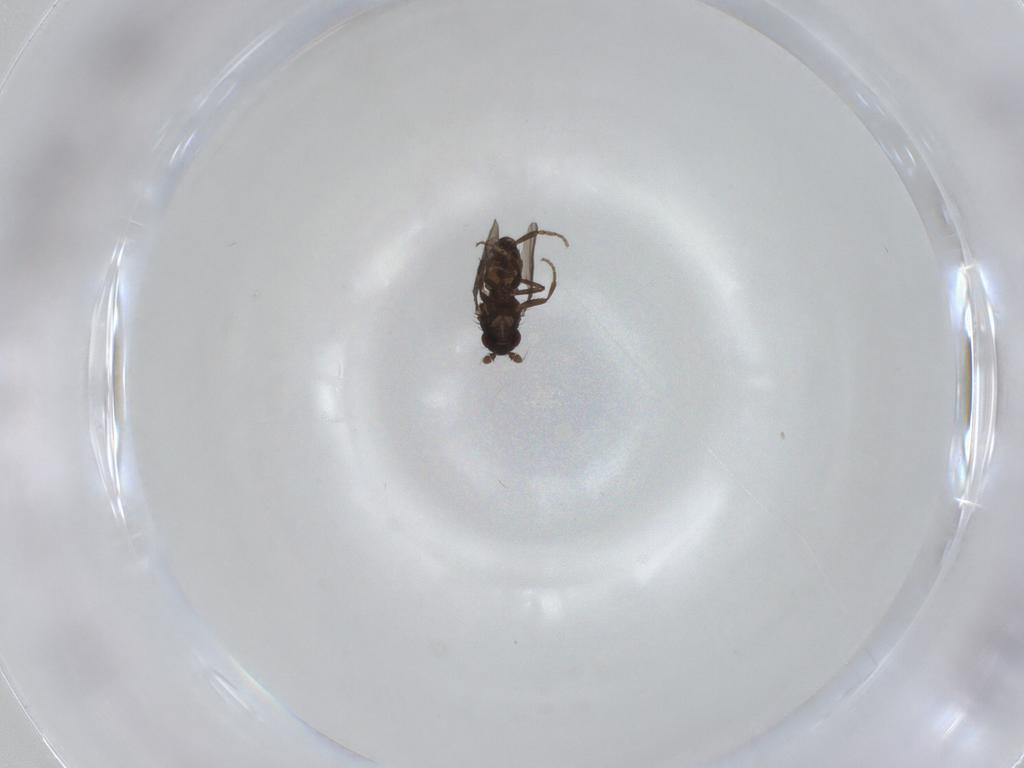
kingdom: Animalia
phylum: Arthropoda
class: Insecta
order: Diptera
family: Sphaeroceridae
